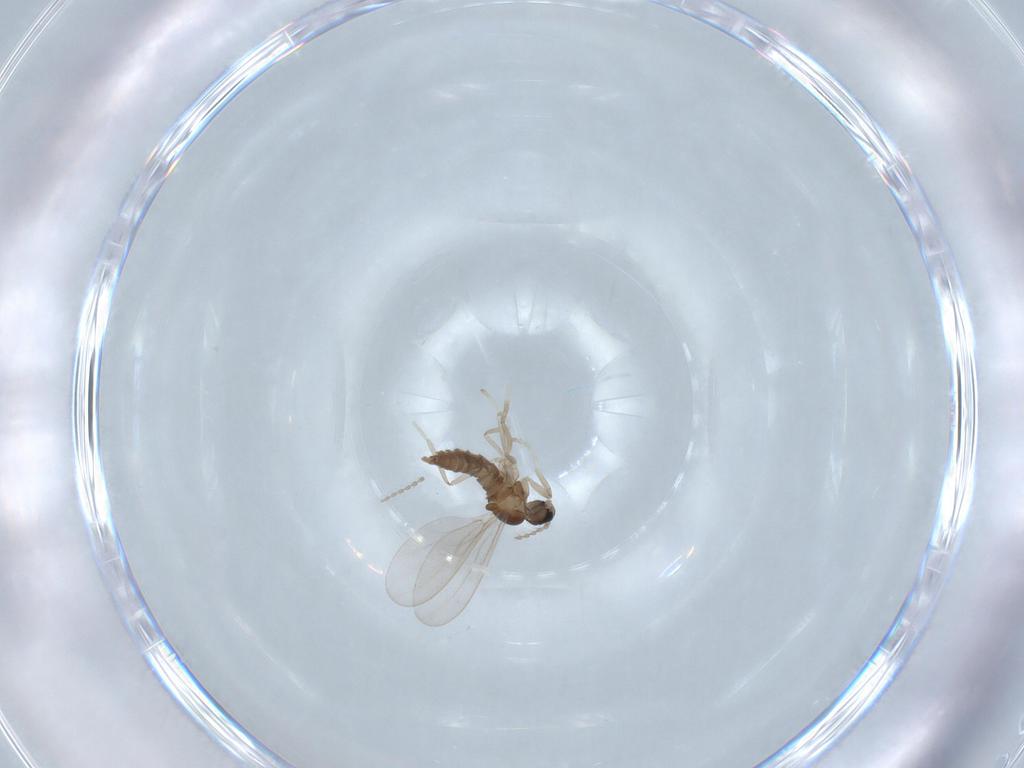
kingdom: Animalia
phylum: Arthropoda
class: Insecta
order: Diptera
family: Cecidomyiidae
